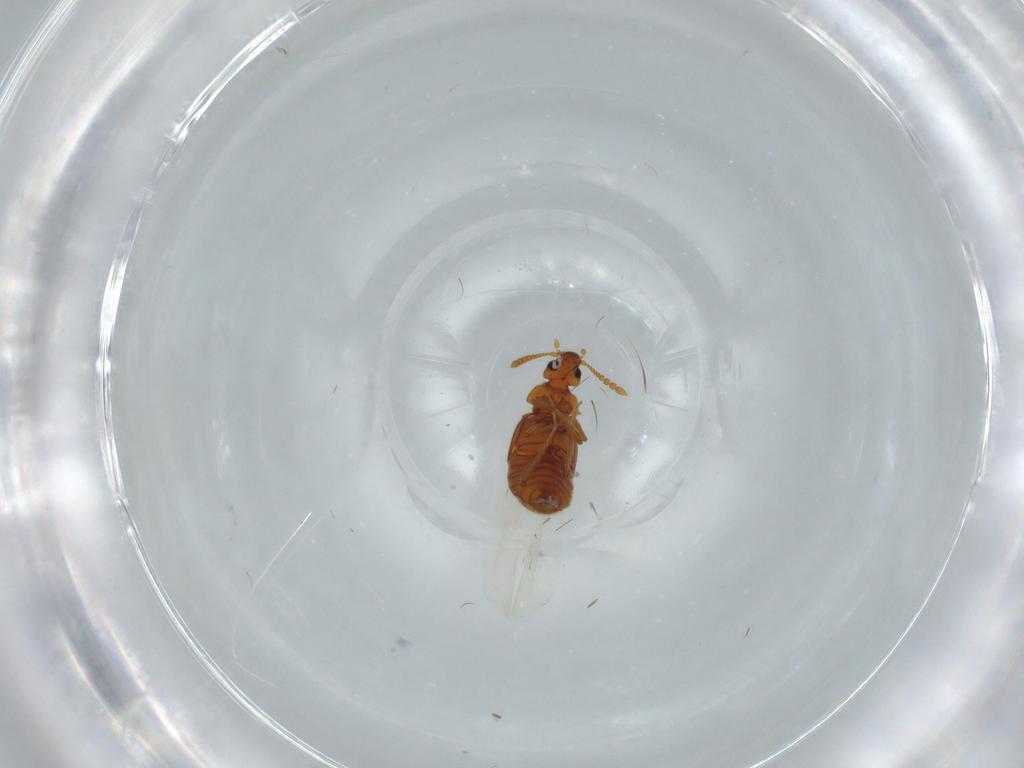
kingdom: Animalia
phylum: Arthropoda
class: Insecta
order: Coleoptera
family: Staphylinidae
